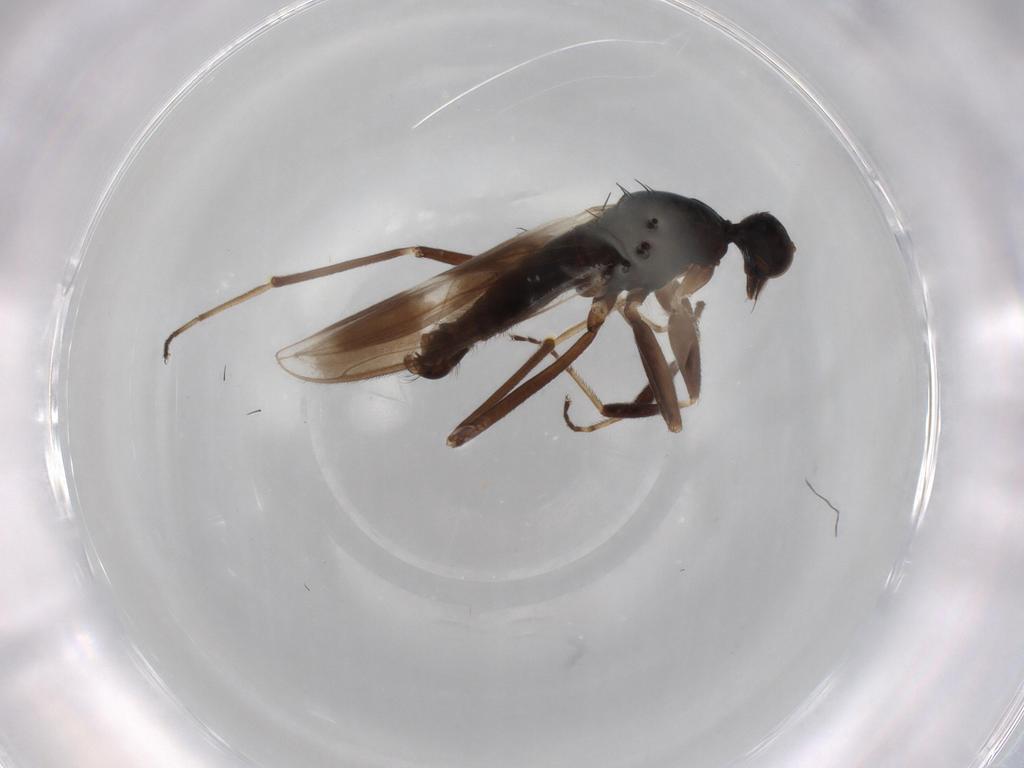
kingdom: Animalia
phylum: Arthropoda
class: Insecta
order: Diptera
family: Hybotidae
